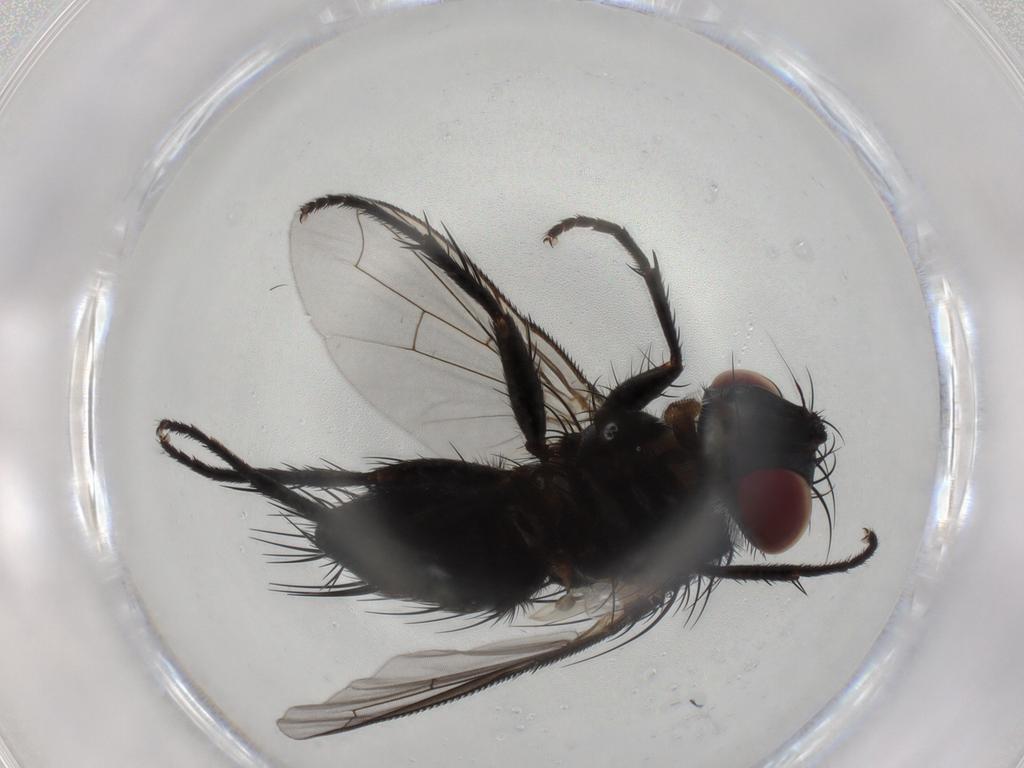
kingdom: Animalia
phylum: Arthropoda
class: Insecta
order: Diptera
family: Tachinidae
